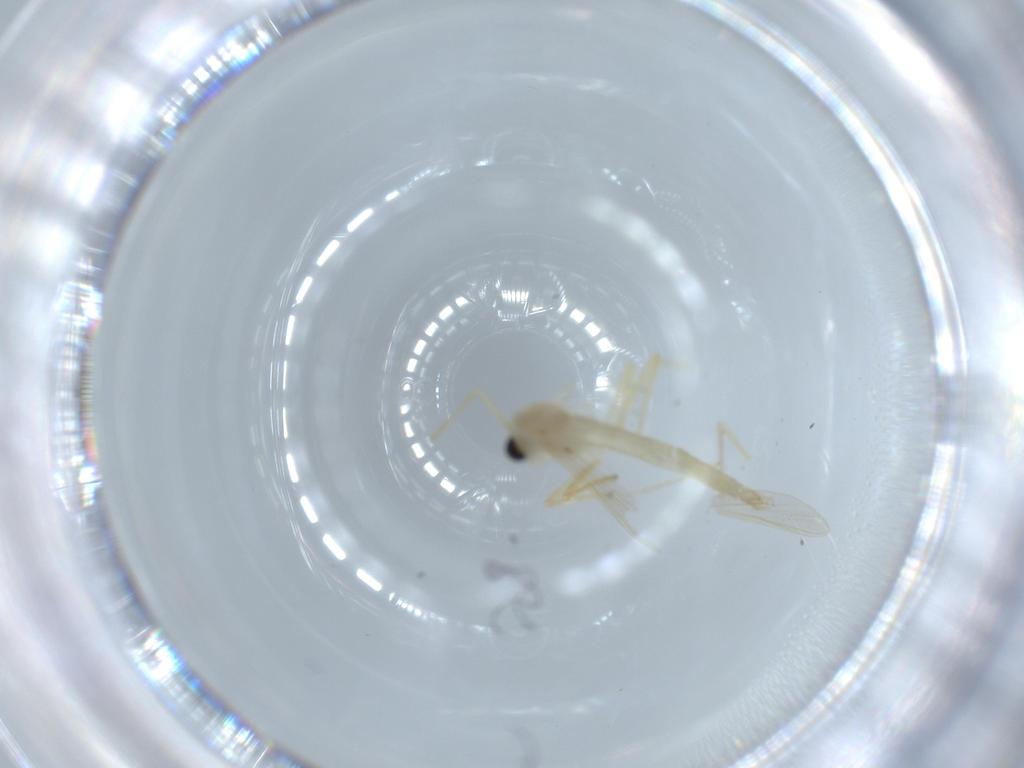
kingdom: Animalia
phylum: Arthropoda
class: Insecta
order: Diptera
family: Chironomidae
